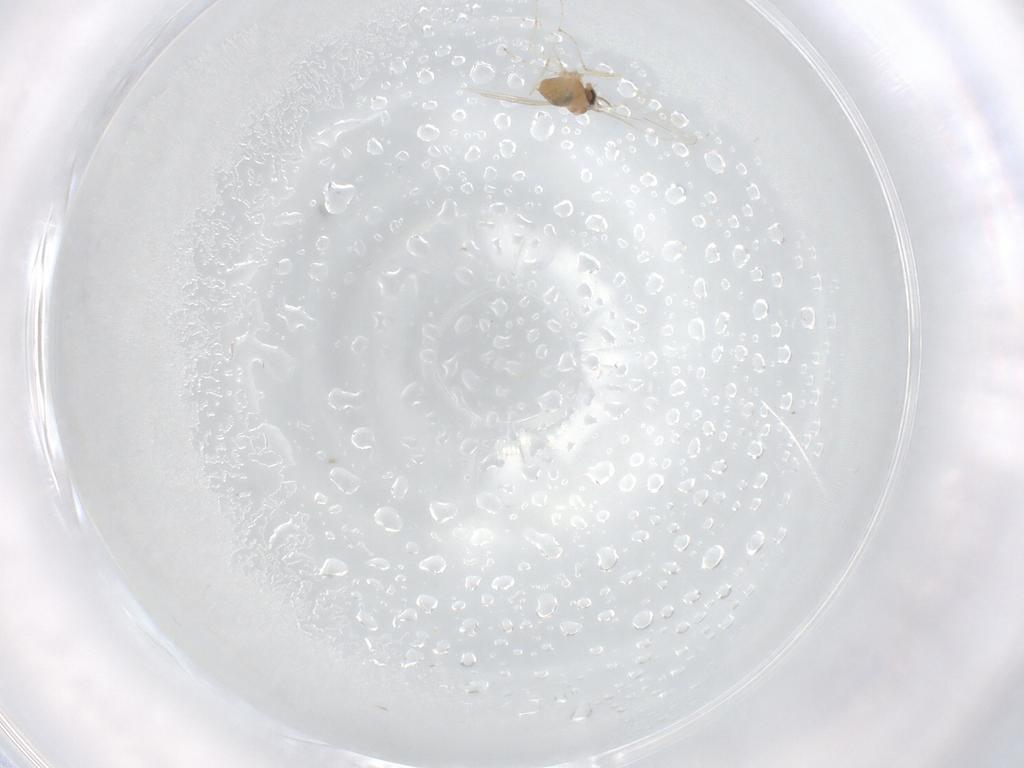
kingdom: Animalia
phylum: Arthropoda
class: Insecta
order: Diptera
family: Cecidomyiidae
